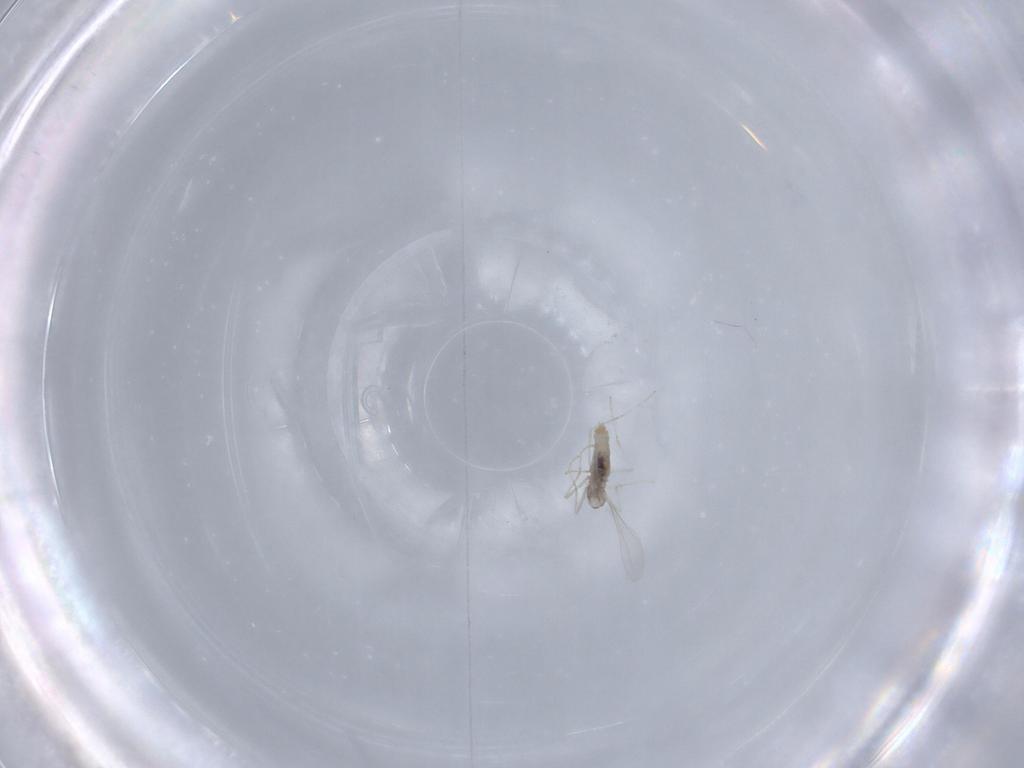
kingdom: Animalia
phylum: Arthropoda
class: Insecta
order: Diptera
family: Cecidomyiidae
